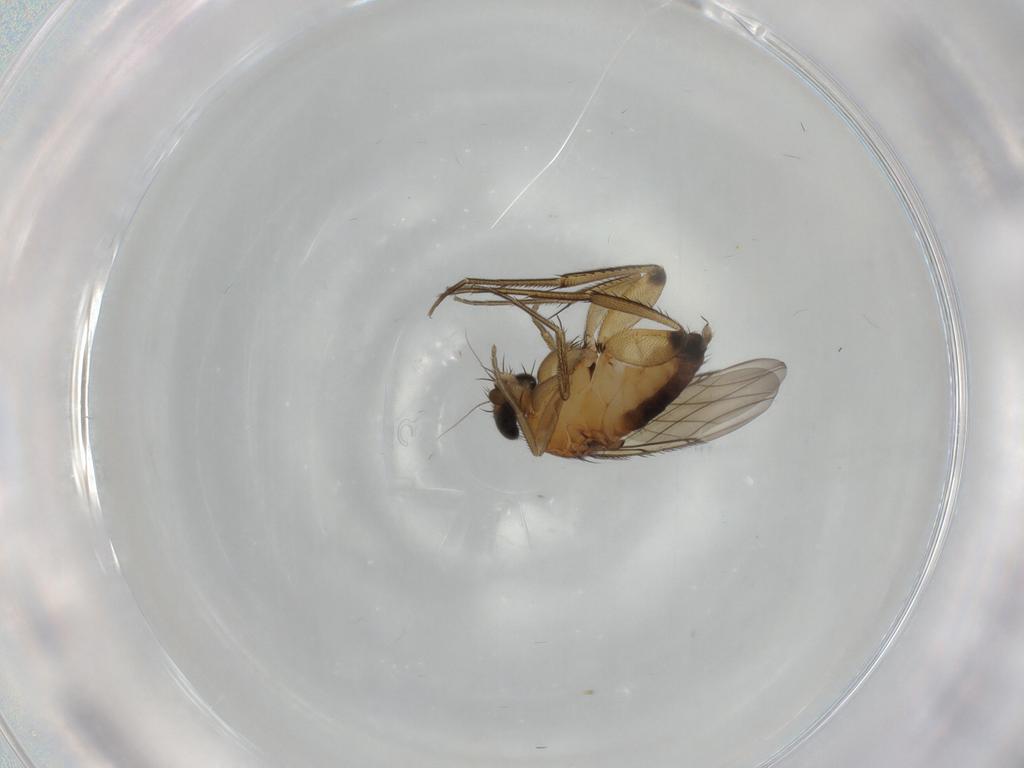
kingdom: Animalia
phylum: Arthropoda
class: Insecta
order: Diptera
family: Phoridae
